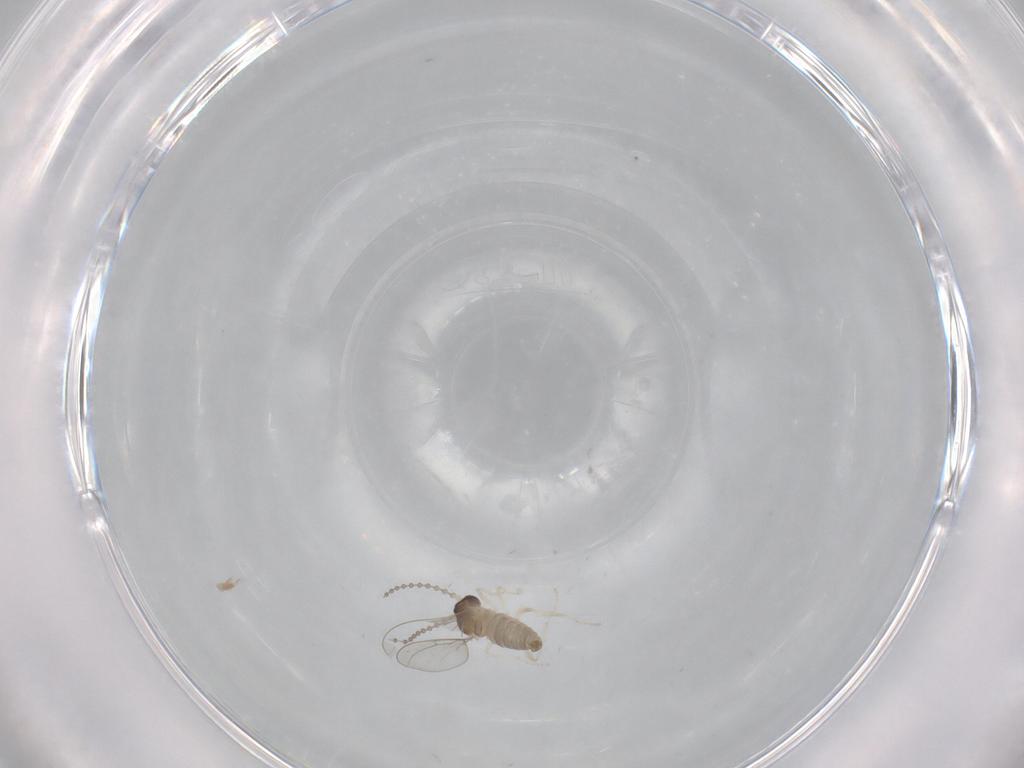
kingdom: Animalia
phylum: Arthropoda
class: Insecta
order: Diptera
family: Cecidomyiidae
